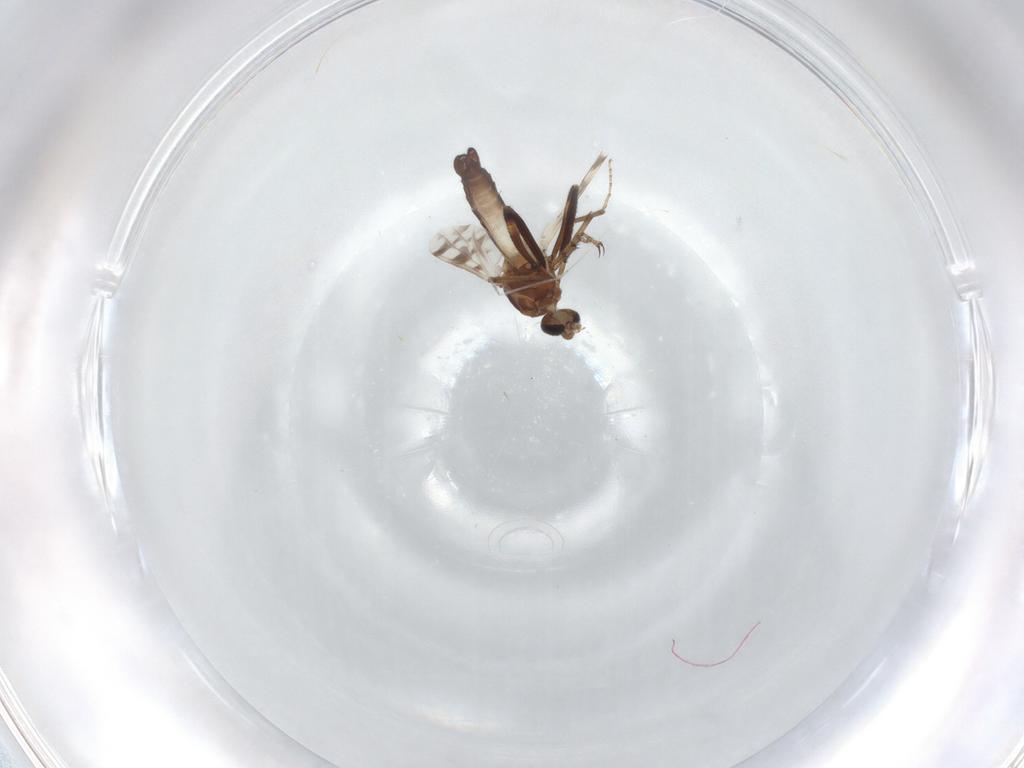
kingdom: Animalia
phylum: Arthropoda
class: Insecta
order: Diptera
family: Ceratopogonidae
